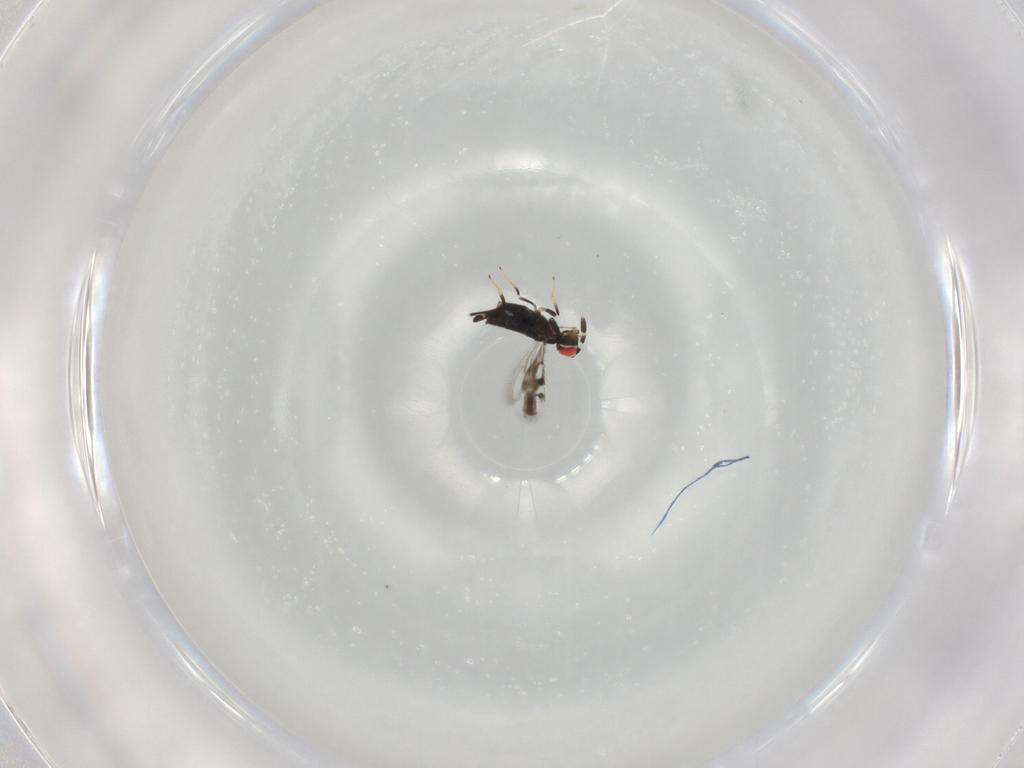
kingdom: Animalia
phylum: Arthropoda
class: Insecta
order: Hymenoptera
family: Azotidae
